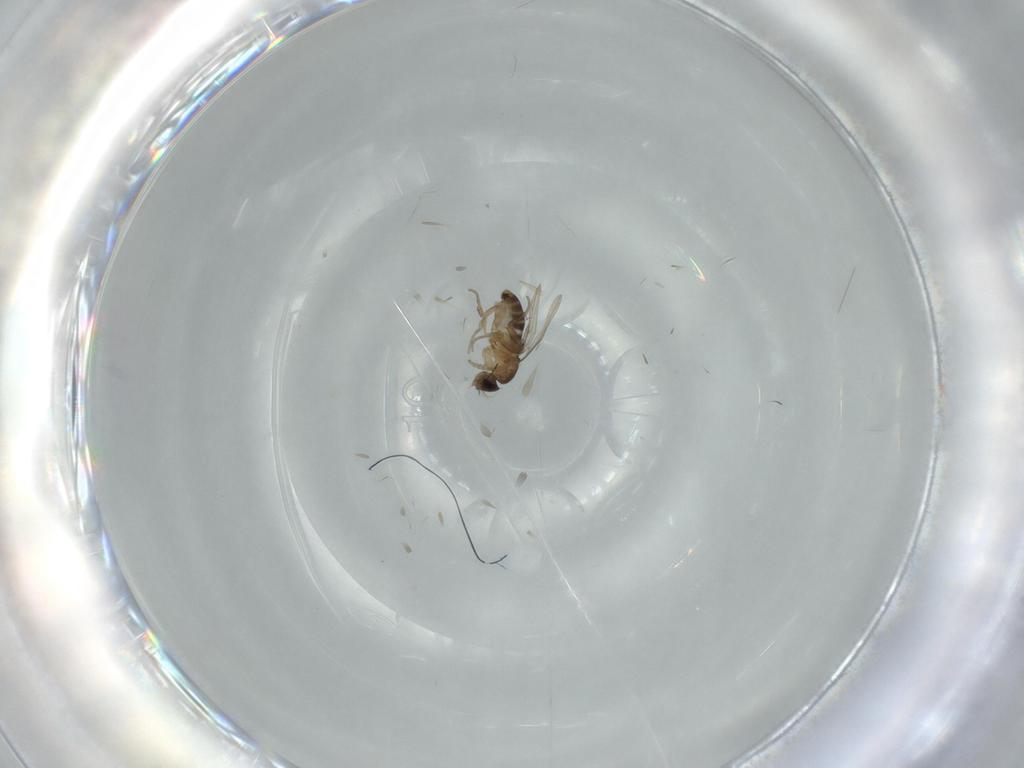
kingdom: Animalia
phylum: Arthropoda
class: Insecta
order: Diptera
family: Phoridae
